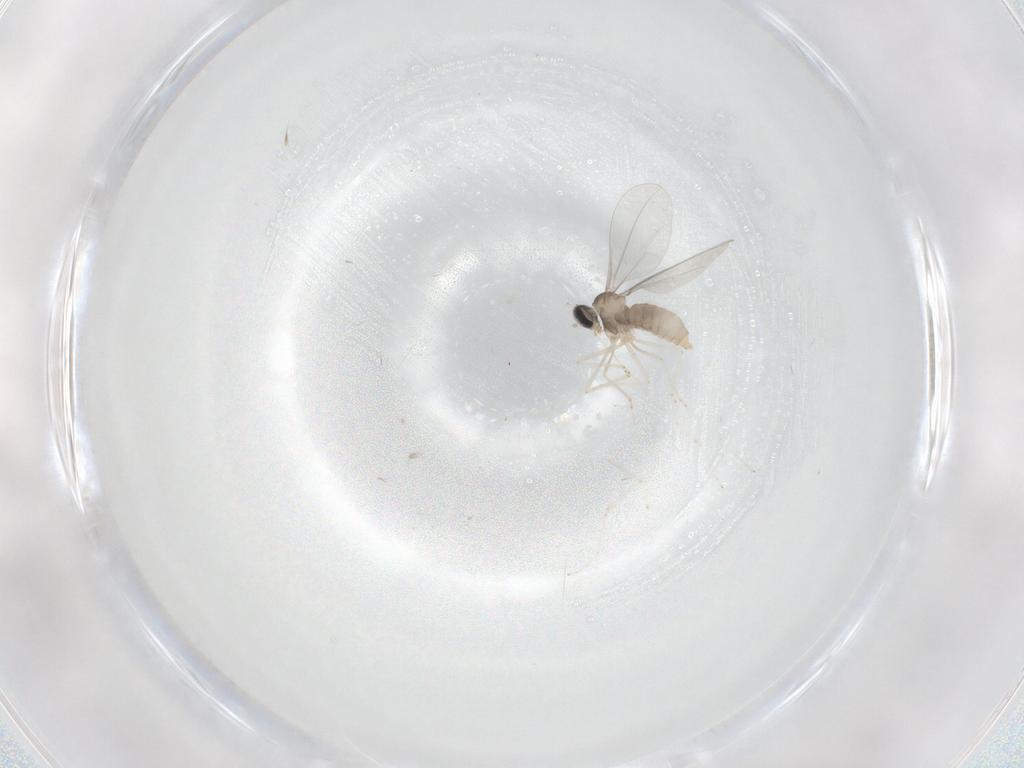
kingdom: Animalia
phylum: Arthropoda
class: Insecta
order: Diptera
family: Cecidomyiidae
